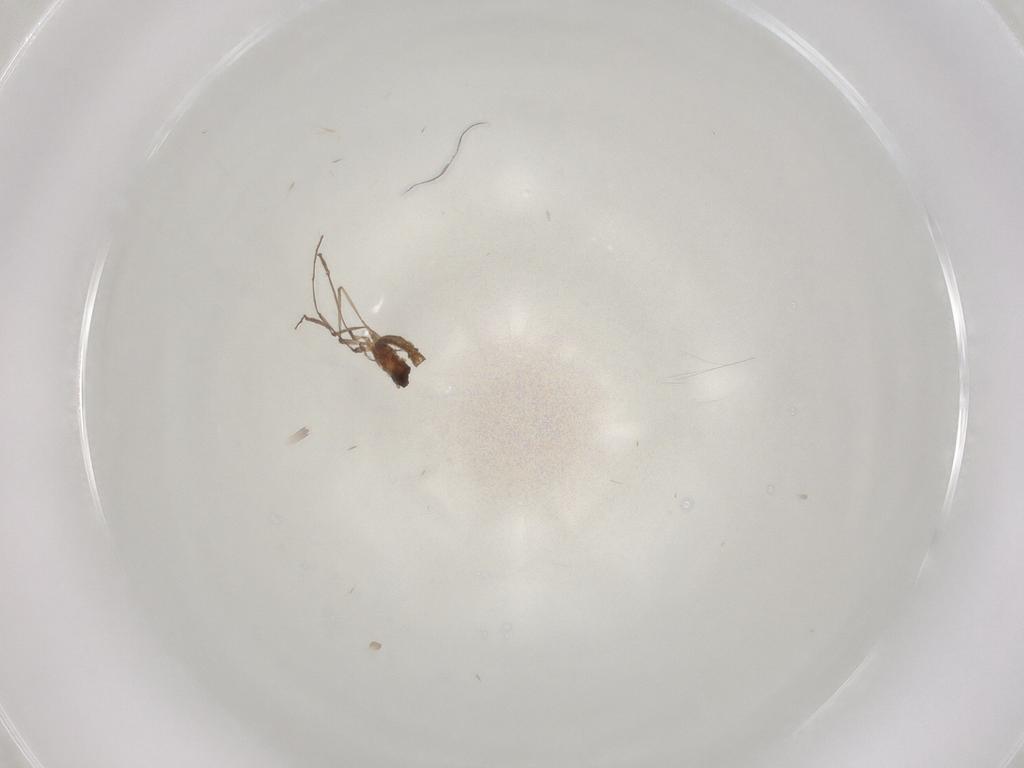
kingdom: Animalia
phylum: Arthropoda
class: Insecta
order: Diptera
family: Cecidomyiidae
